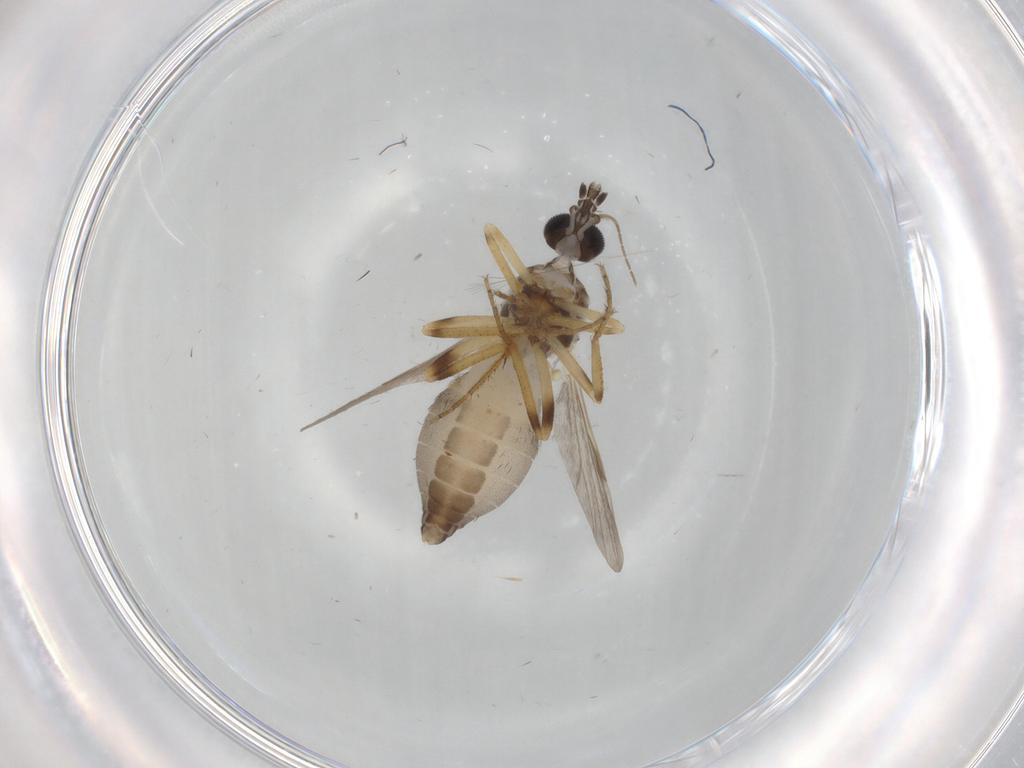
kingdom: Animalia
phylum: Arthropoda
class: Insecta
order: Diptera
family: Ceratopogonidae
